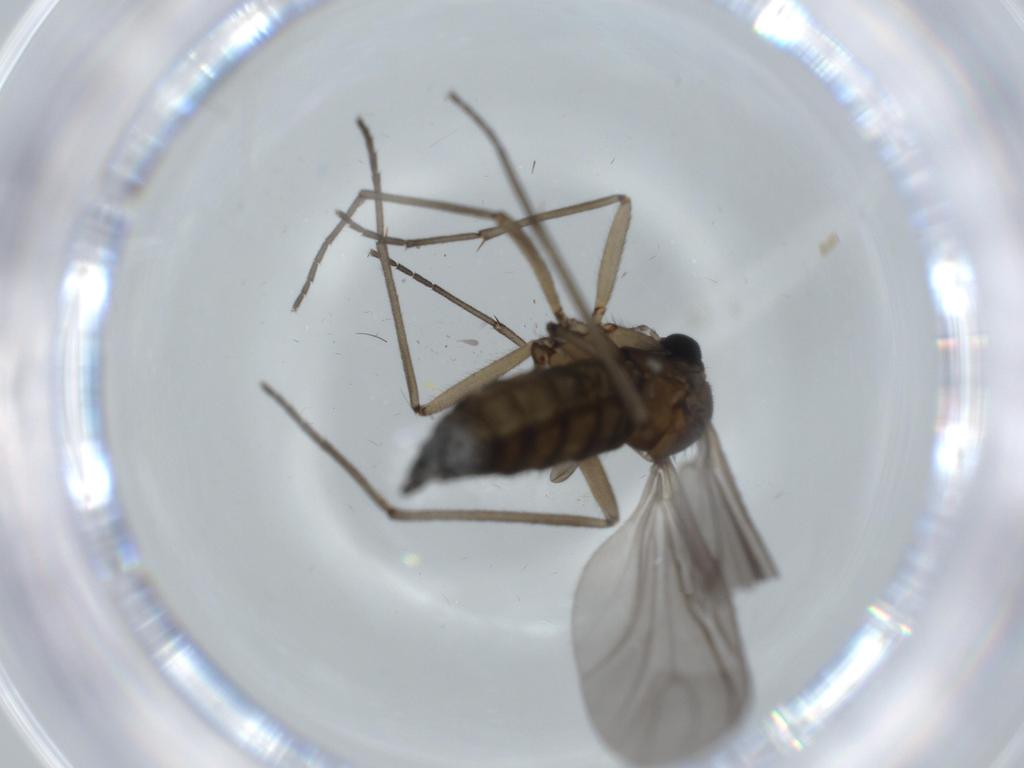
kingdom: Animalia
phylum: Arthropoda
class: Insecta
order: Diptera
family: Sciaridae
